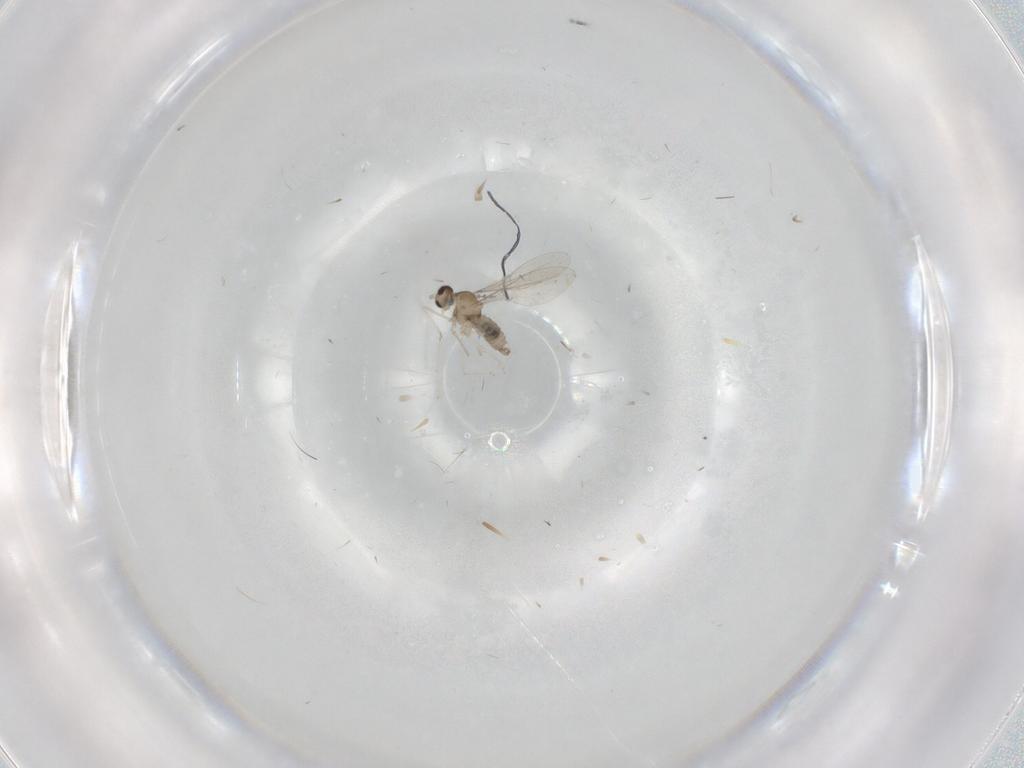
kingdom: Animalia
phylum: Arthropoda
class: Insecta
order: Diptera
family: Cecidomyiidae
